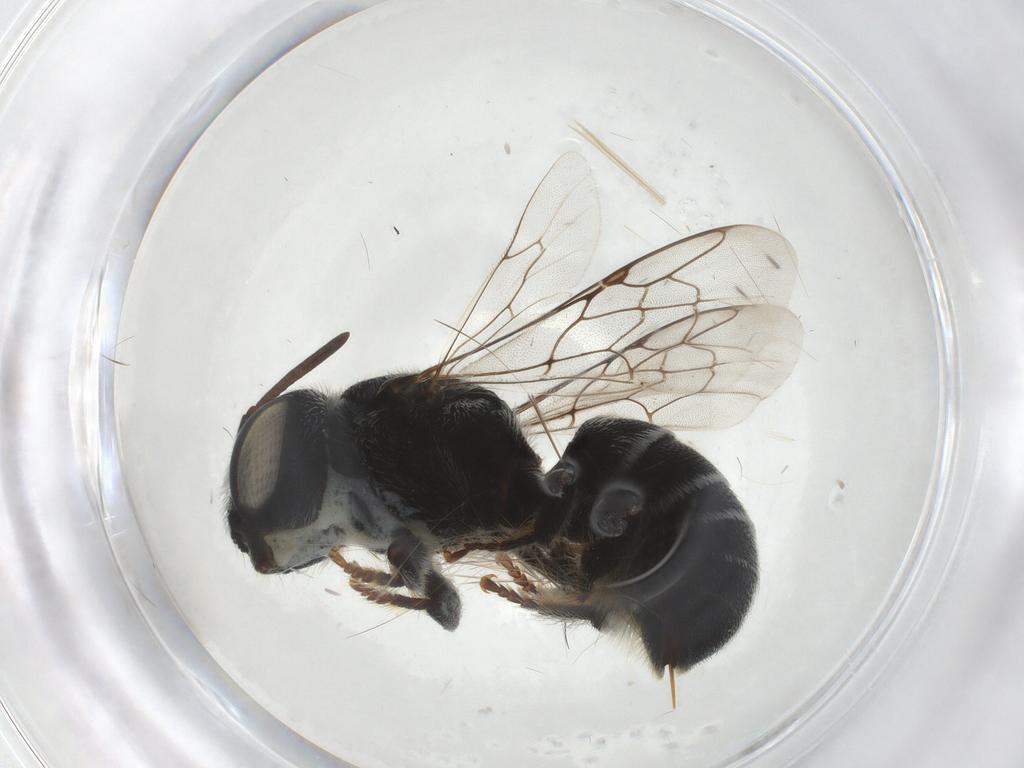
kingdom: Animalia
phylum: Arthropoda
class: Insecta
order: Hymenoptera
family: Megachilidae
